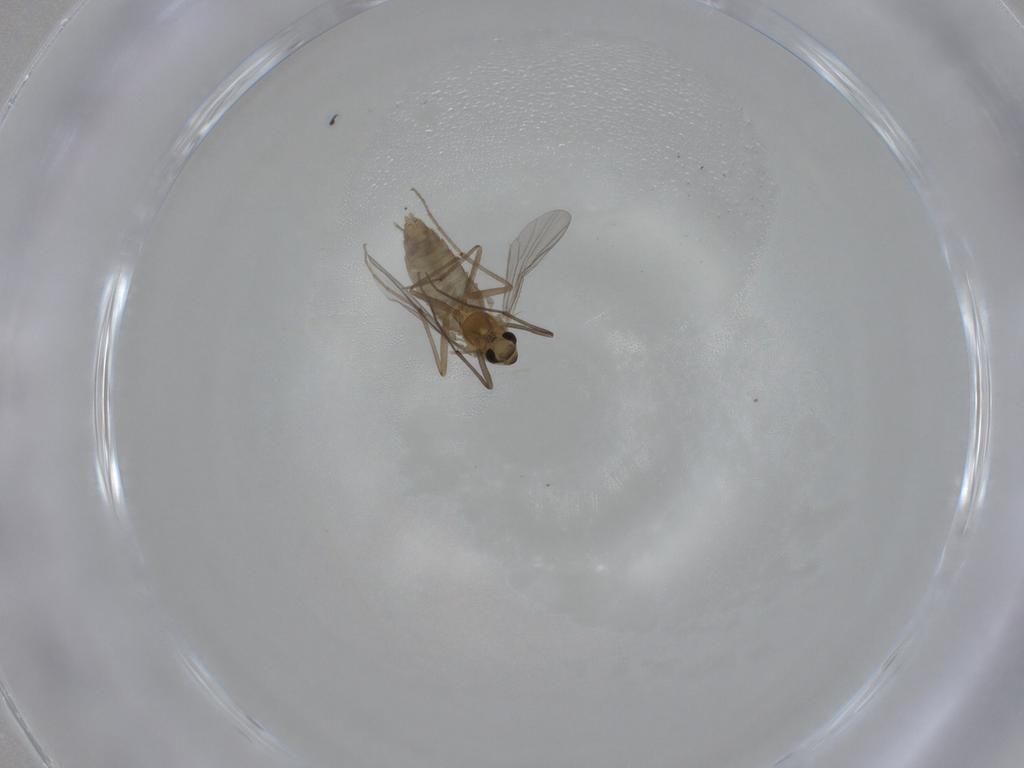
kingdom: Animalia
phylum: Arthropoda
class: Insecta
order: Diptera
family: Chironomidae
